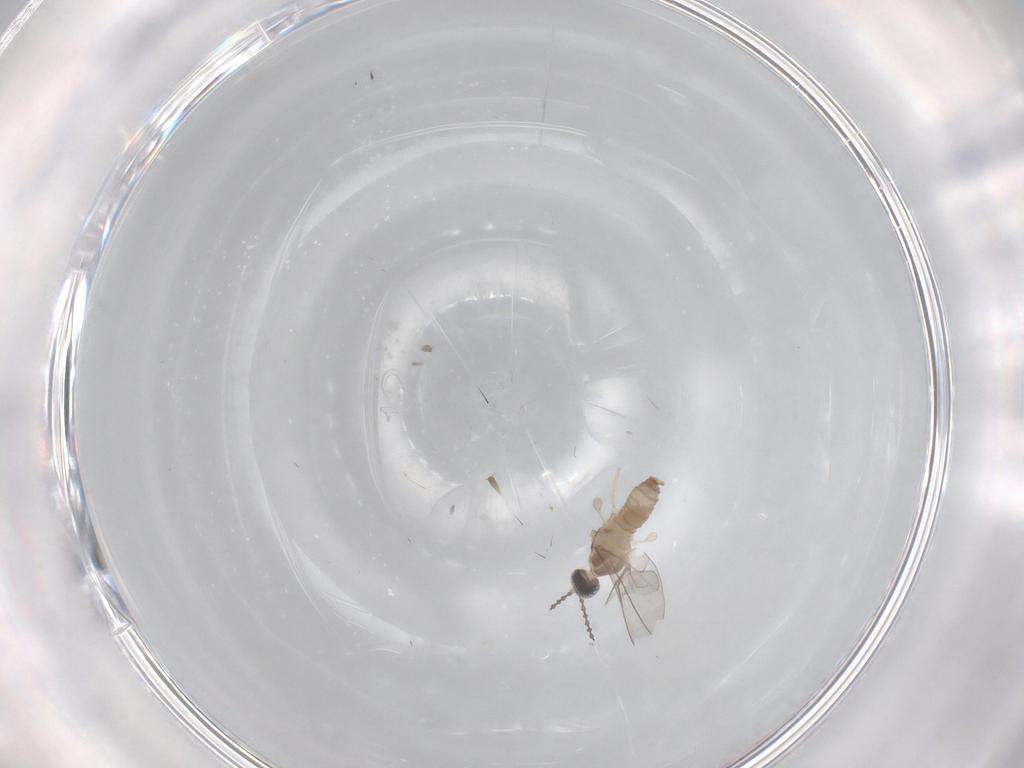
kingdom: Animalia
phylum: Arthropoda
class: Insecta
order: Diptera
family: Cecidomyiidae
